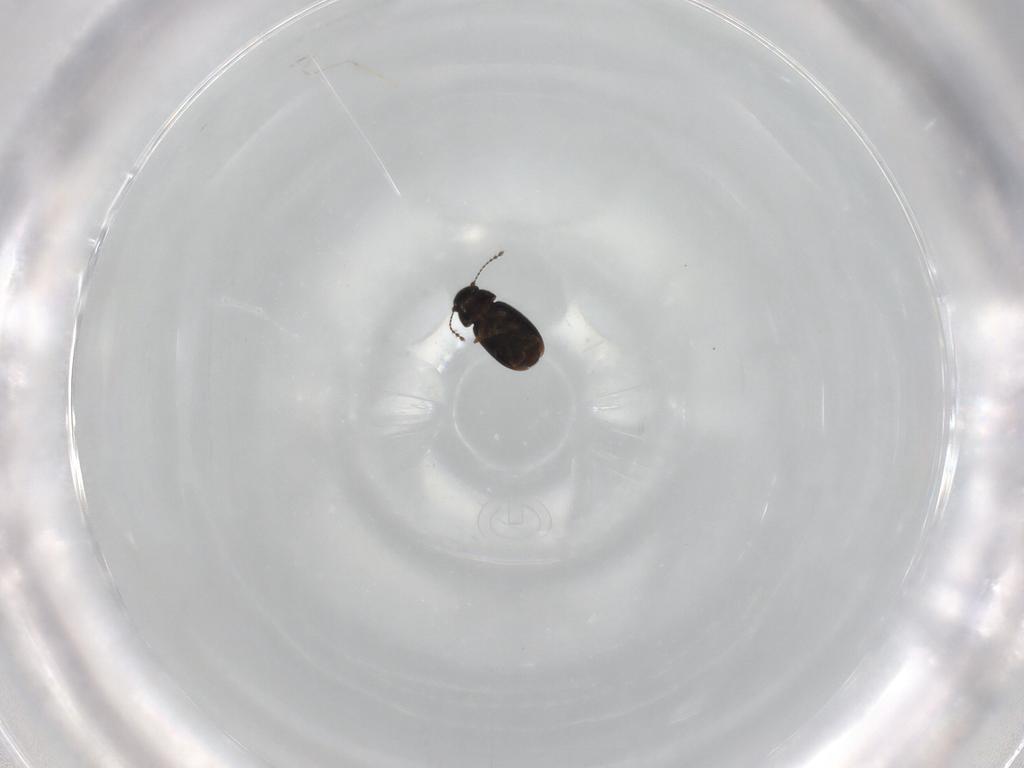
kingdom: Animalia
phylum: Arthropoda
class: Insecta
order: Coleoptera
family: Ptiliidae
